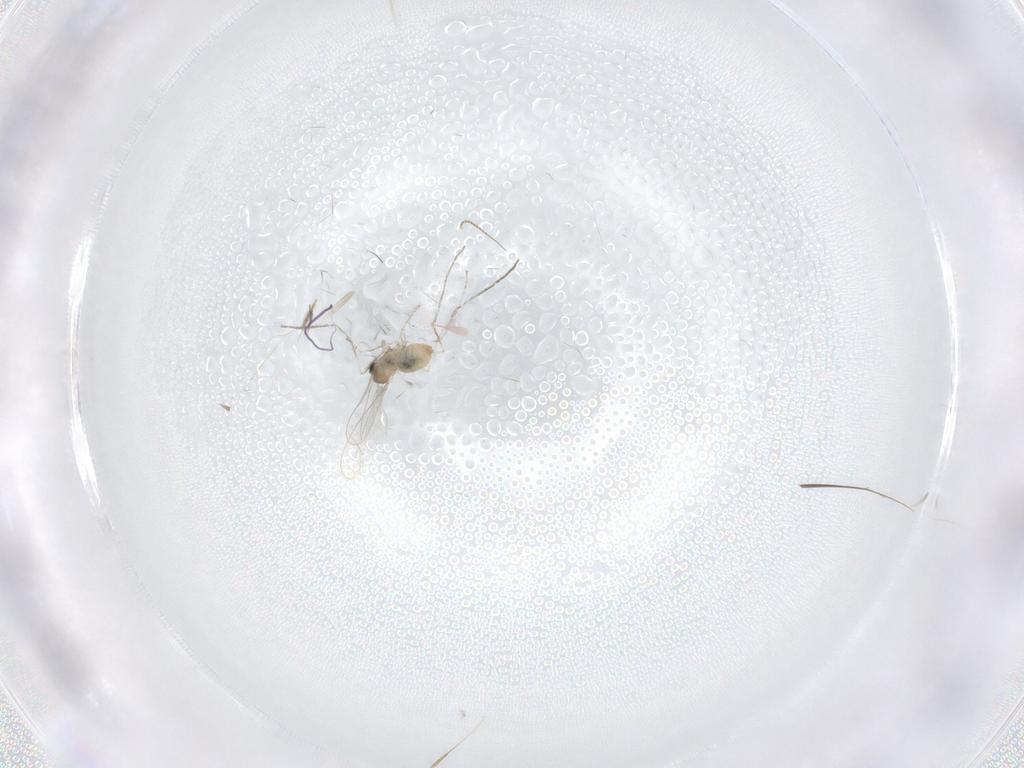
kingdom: Animalia
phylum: Arthropoda
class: Insecta
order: Diptera
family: Cecidomyiidae
